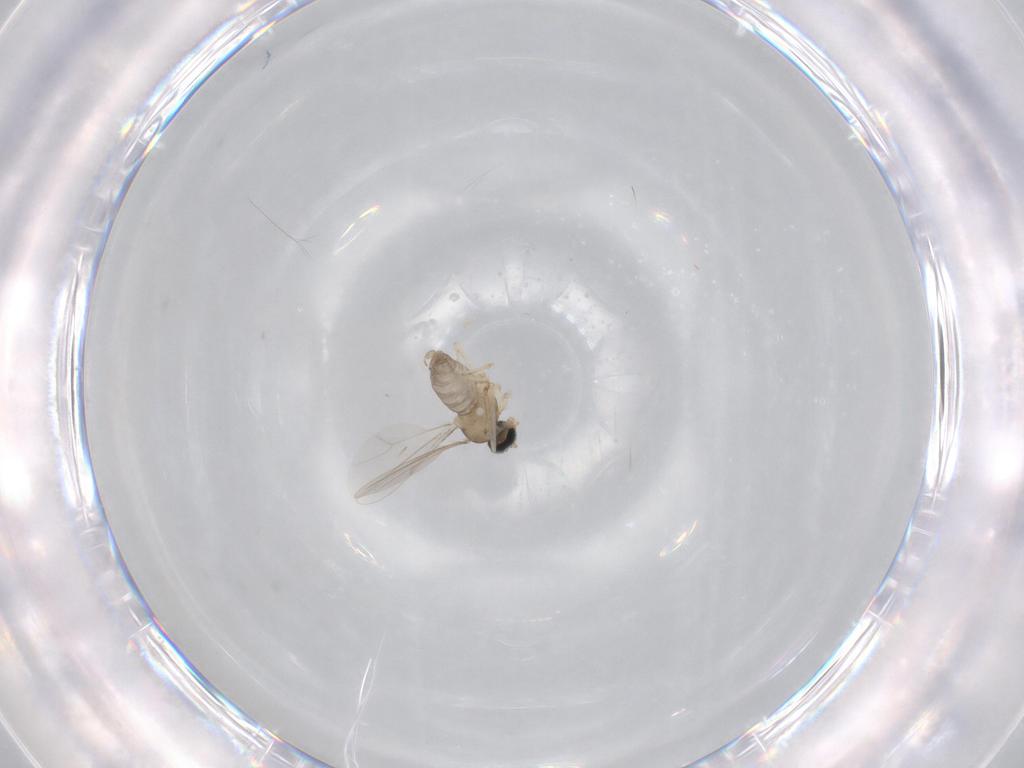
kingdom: Animalia
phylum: Arthropoda
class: Insecta
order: Diptera
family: Cecidomyiidae
